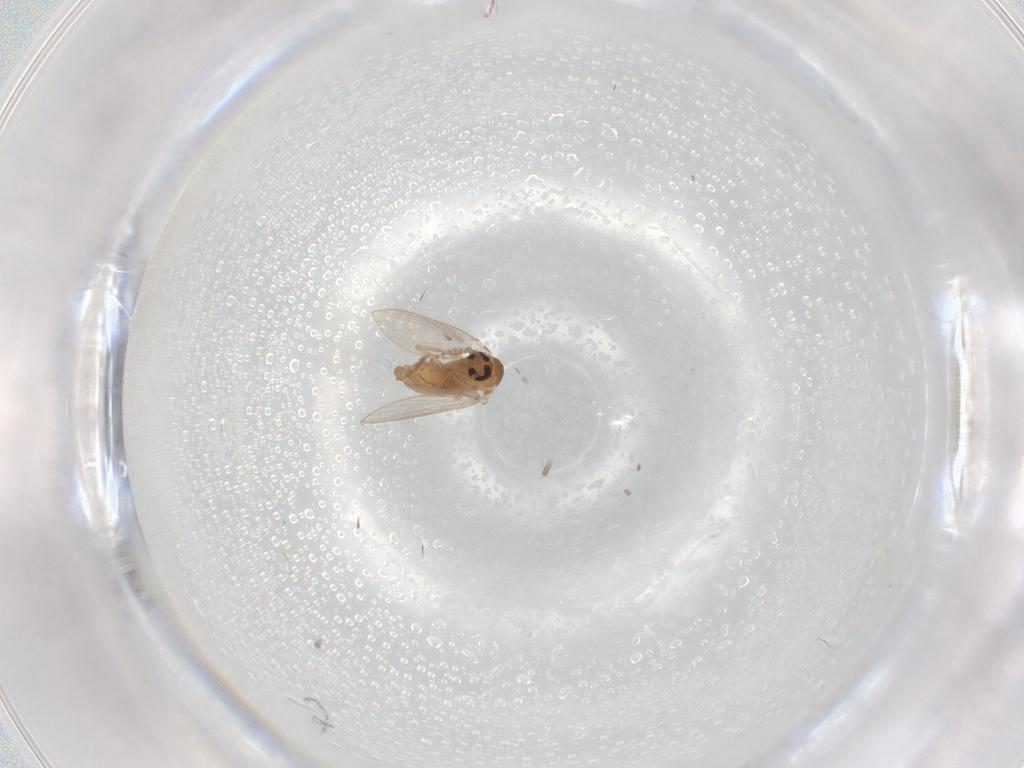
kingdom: Animalia
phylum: Arthropoda
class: Insecta
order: Diptera
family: Psychodidae
